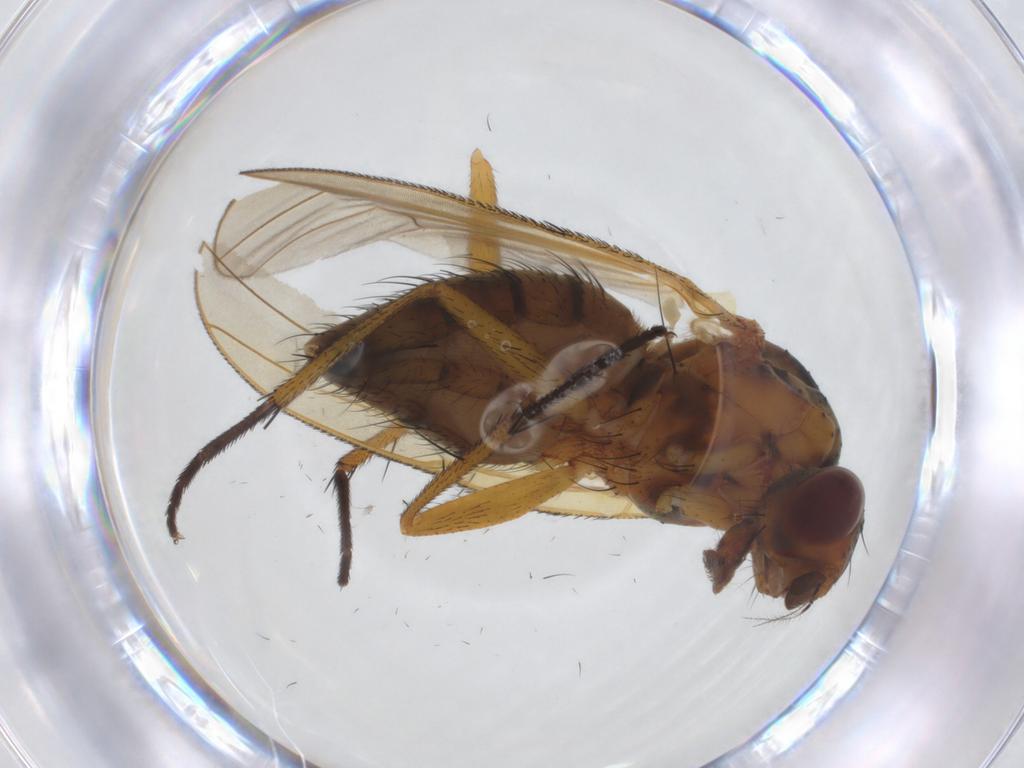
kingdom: Animalia
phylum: Arthropoda
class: Insecta
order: Diptera
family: Anthomyiidae
